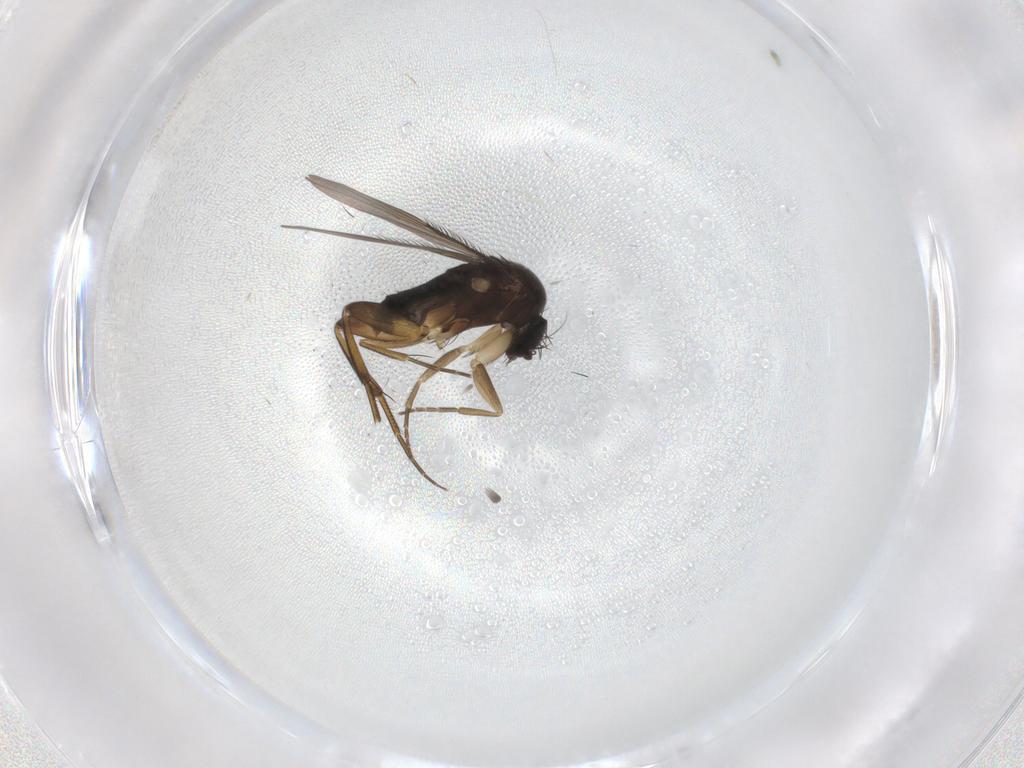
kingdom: Animalia
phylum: Arthropoda
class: Insecta
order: Diptera
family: Phoridae
